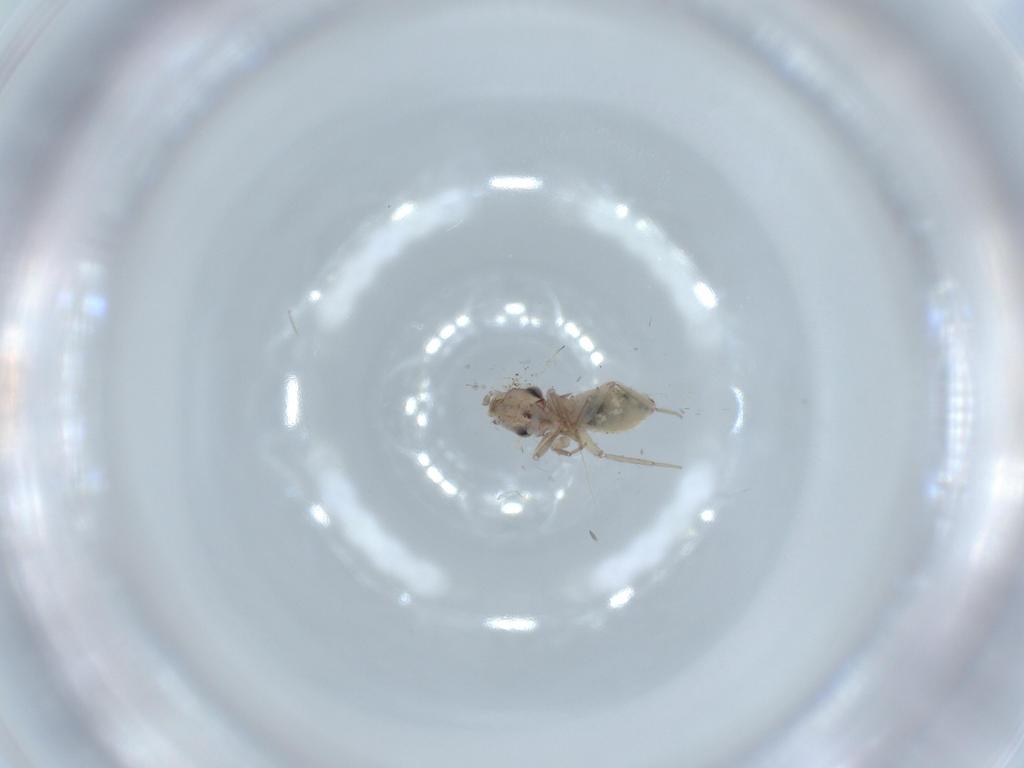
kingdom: Animalia
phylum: Arthropoda
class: Insecta
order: Psocodea
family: Lepidopsocidae
